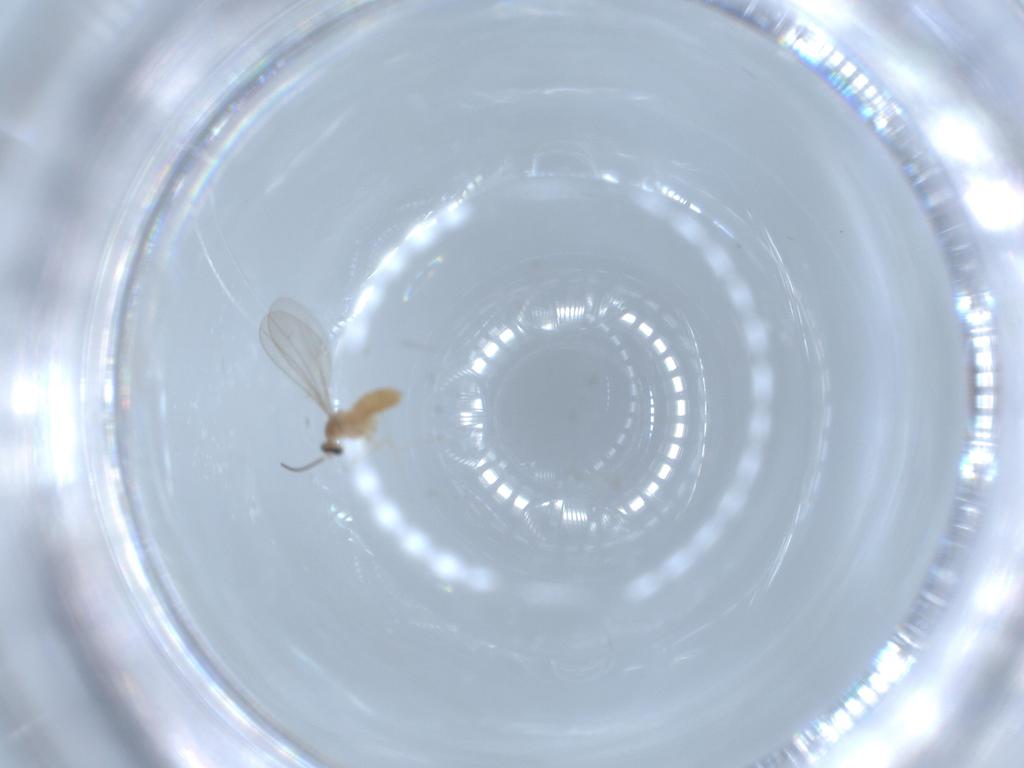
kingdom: Animalia
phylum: Arthropoda
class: Insecta
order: Diptera
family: Cecidomyiidae
